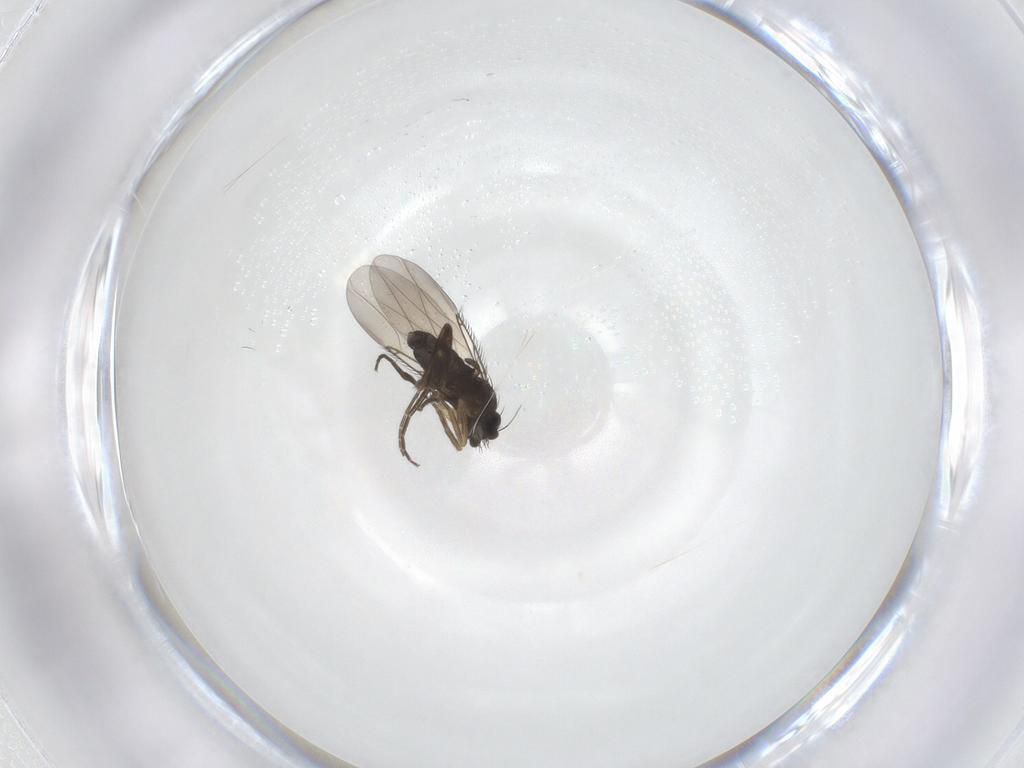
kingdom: Animalia
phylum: Arthropoda
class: Insecta
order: Diptera
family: Phoridae
